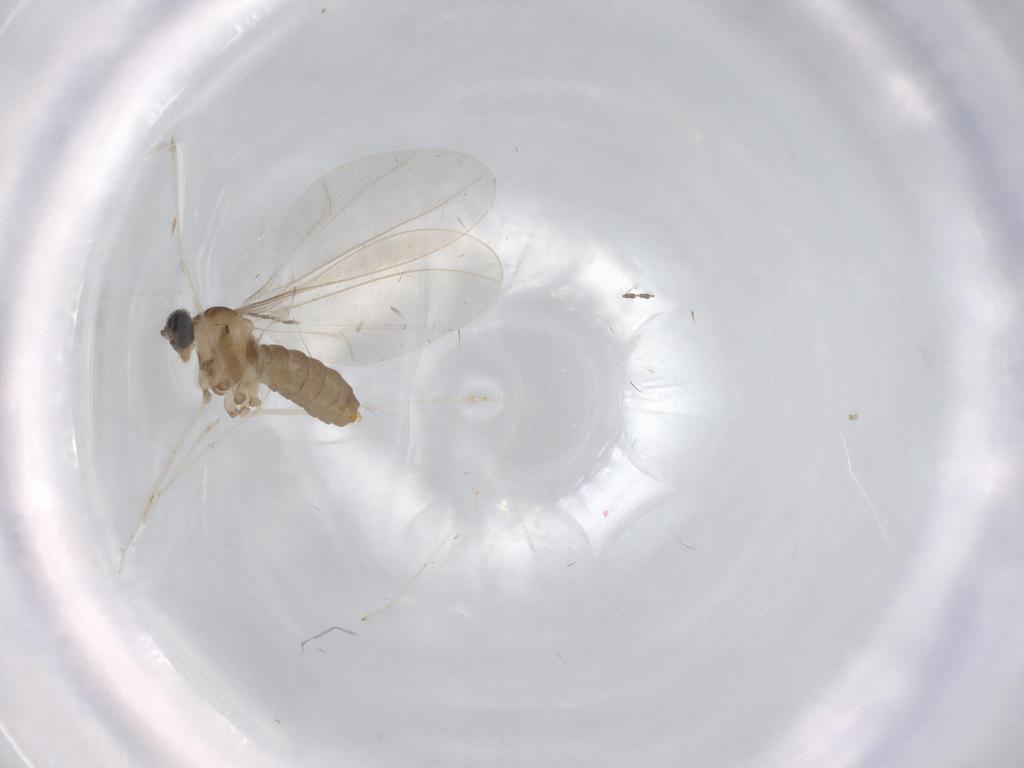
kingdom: Animalia
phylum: Arthropoda
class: Insecta
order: Diptera
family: Cecidomyiidae
